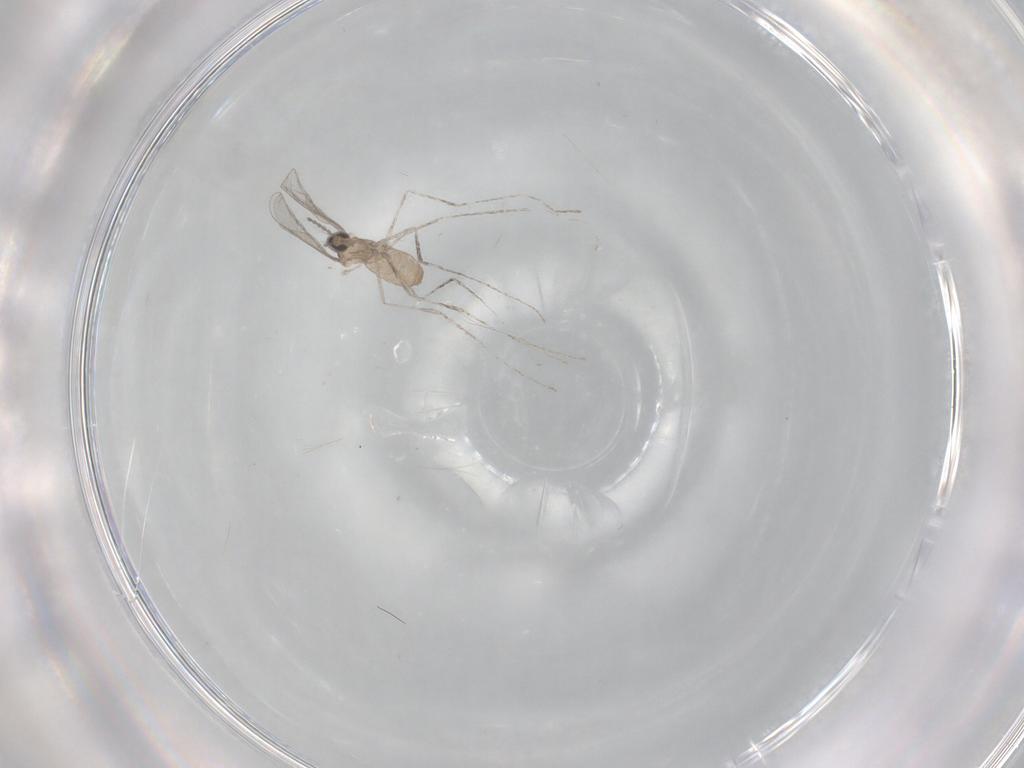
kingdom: Animalia
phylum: Arthropoda
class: Insecta
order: Diptera
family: Cecidomyiidae
